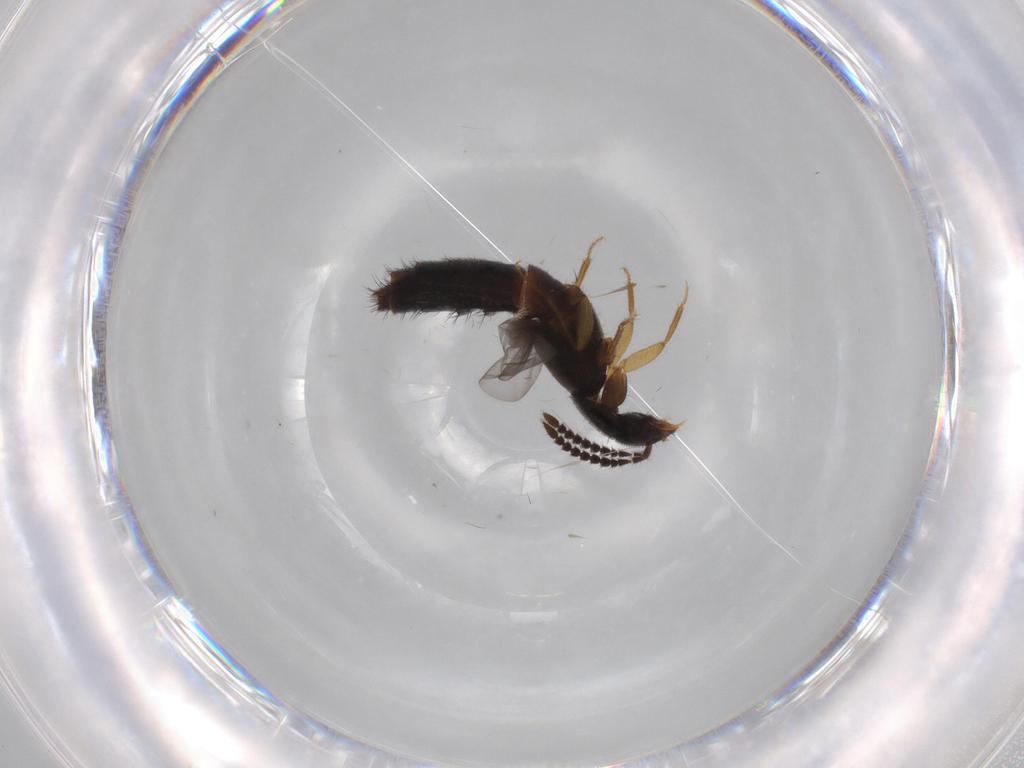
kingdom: Animalia
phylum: Arthropoda
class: Insecta
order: Coleoptera
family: Staphylinidae
